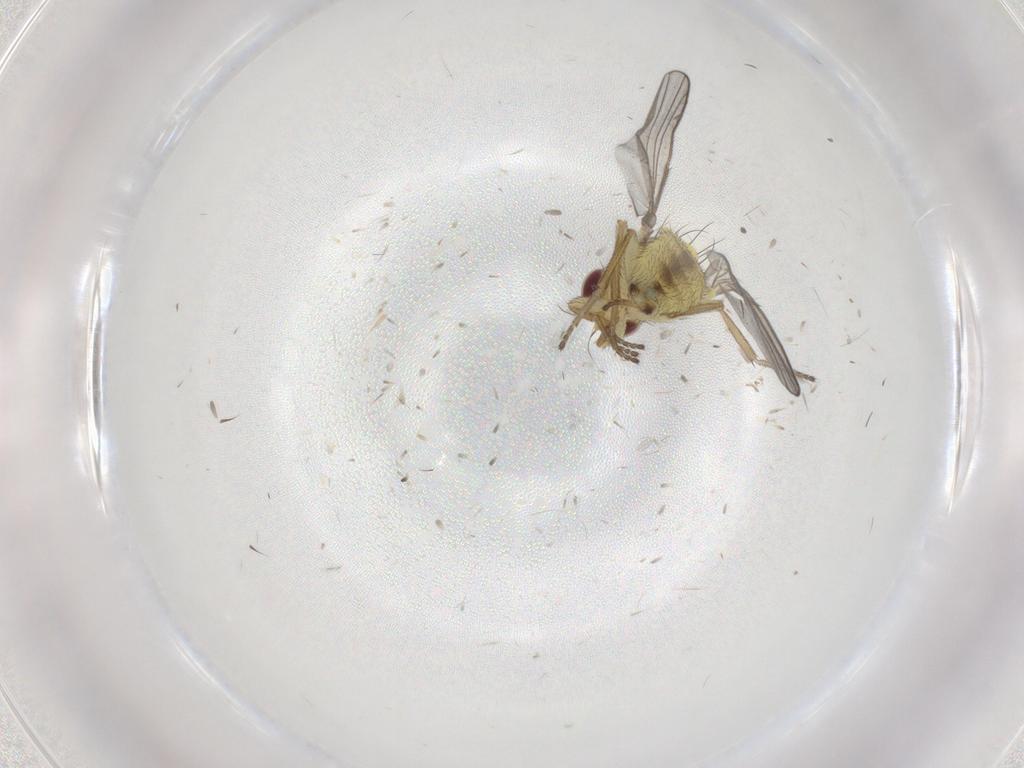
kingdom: Animalia
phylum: Arthropoda
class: Insecta
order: Diptera
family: Agromyzidae
